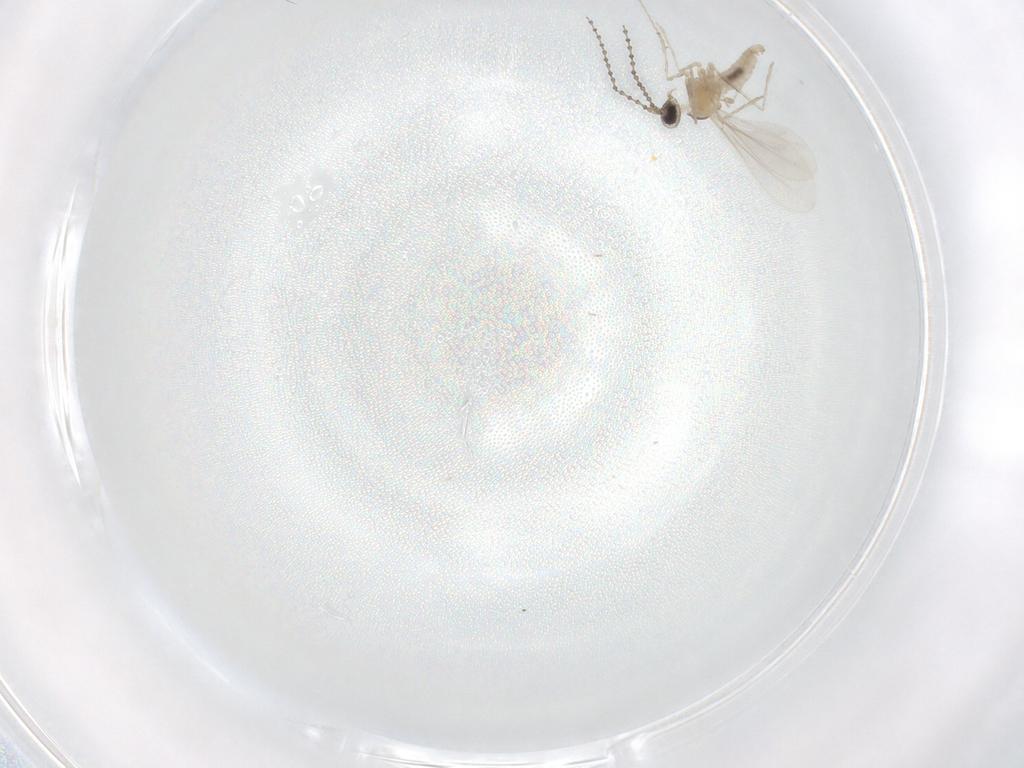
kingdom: Animalia
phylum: Arthropoda
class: Insecta
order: Diptera
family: Cecidomyiidae
